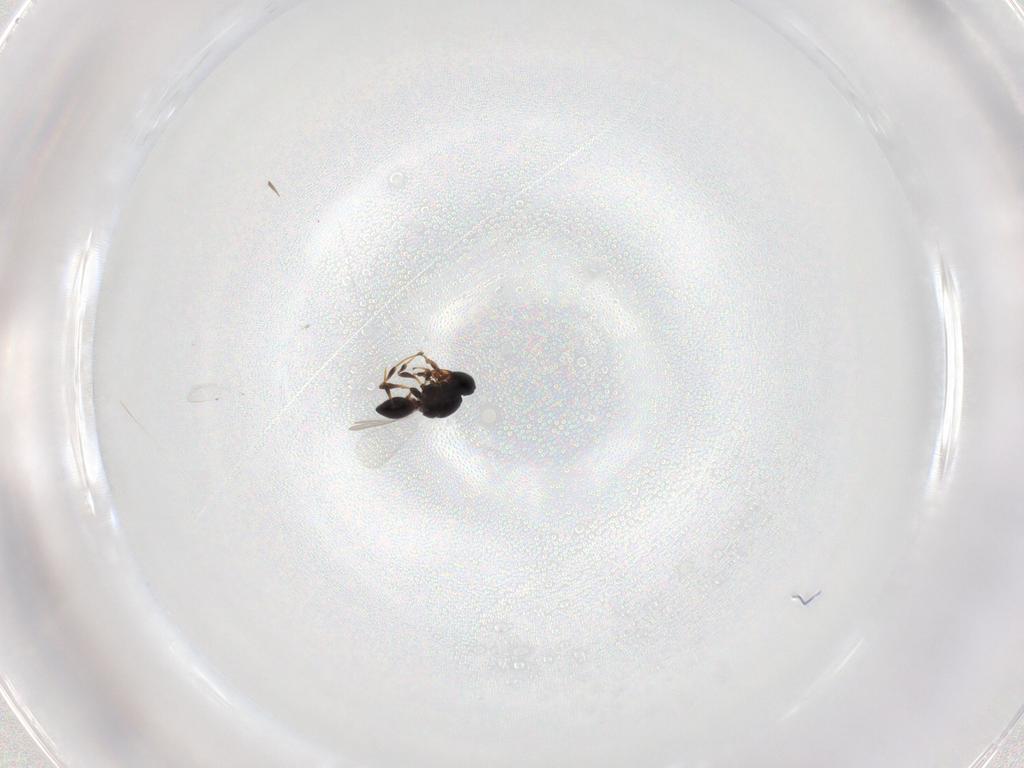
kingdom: Animalia
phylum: Arthropoda
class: Insecta
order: Hymenoptera
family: Platygastridae
